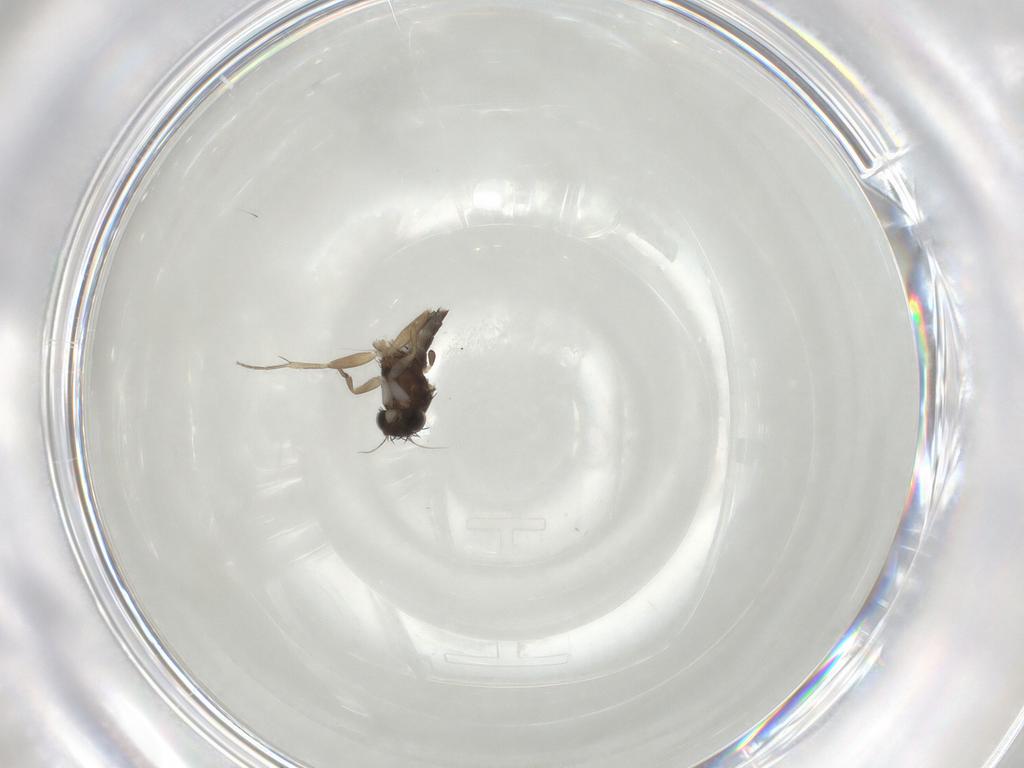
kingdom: Animalia
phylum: Arthropoda
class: Insecta
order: Diptera
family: Phoridae
